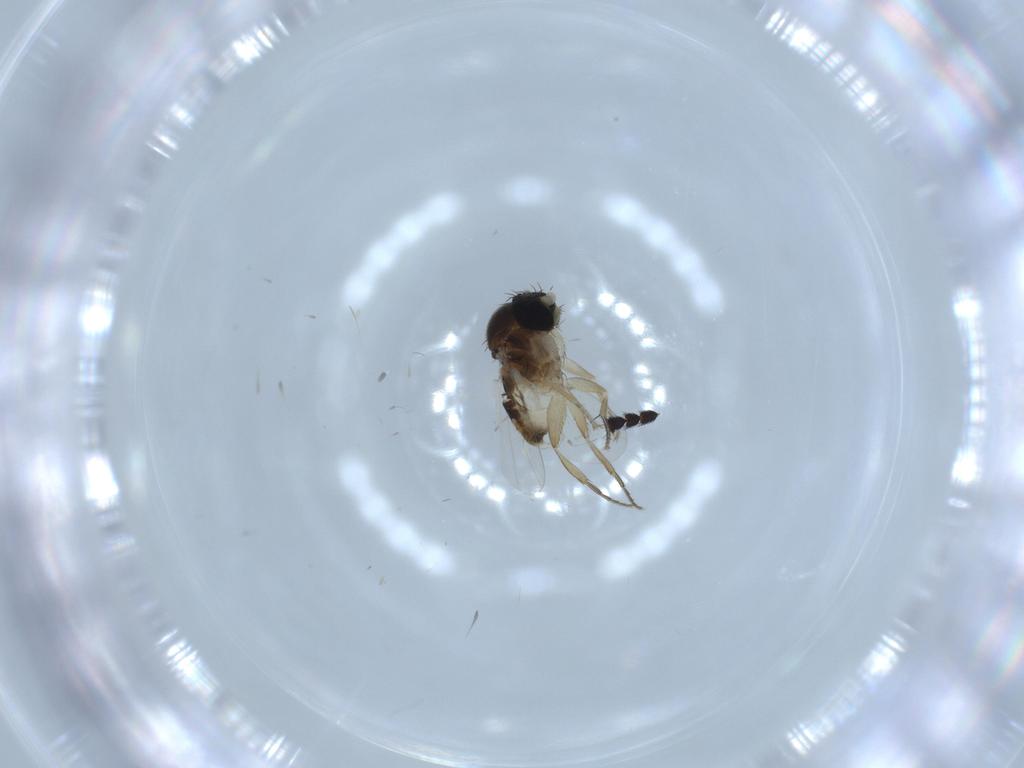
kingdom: Animalia
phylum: Arthropoda
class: Insecta
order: Diptera
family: Phoridae
